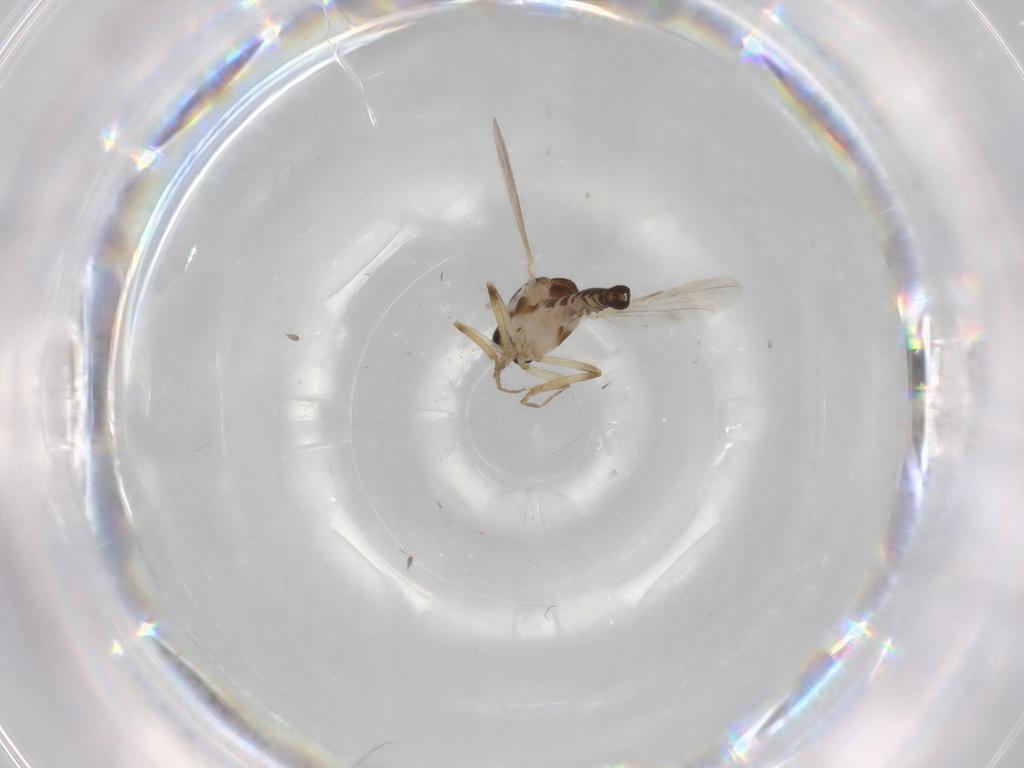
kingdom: Animalia
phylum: Arthropoda
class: Insecta
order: Diptera
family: Ceratopogonidae
